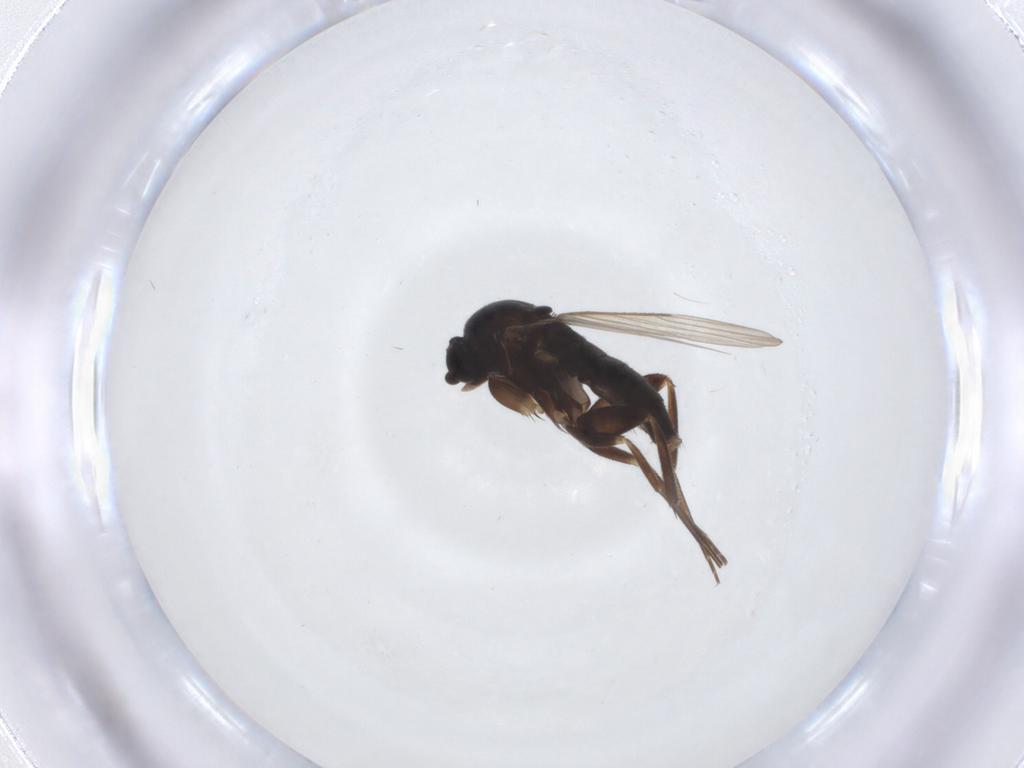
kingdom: Animalia
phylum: Arthropoda
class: Insecta
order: Diptera
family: Phoridae
